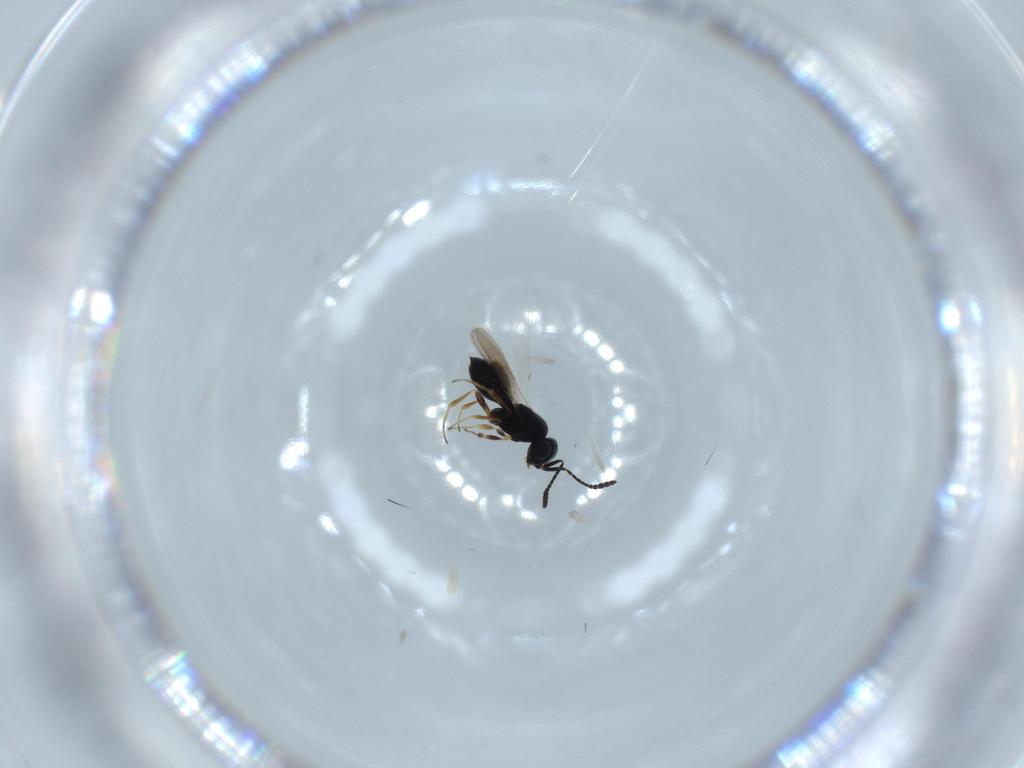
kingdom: Animalia
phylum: Arthropoda
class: Insecta
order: Hymenoptera
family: Scelionidae
